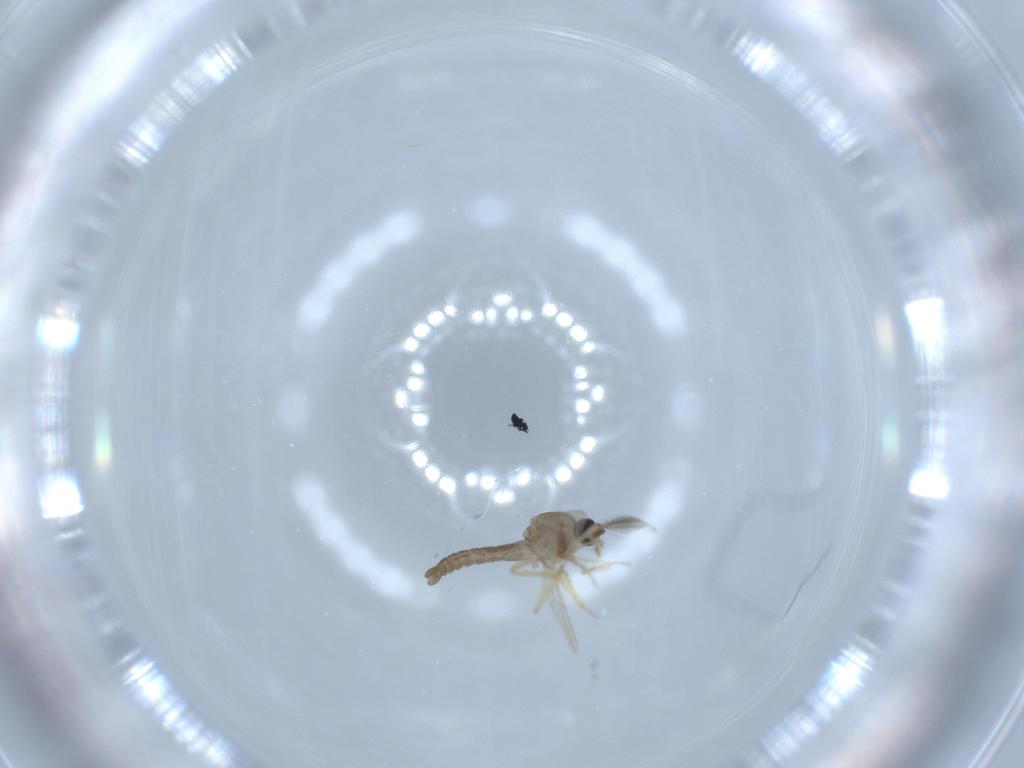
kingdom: Animalia
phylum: Arthropoda
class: Insecta
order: Diptera
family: Ceratopogonidae
